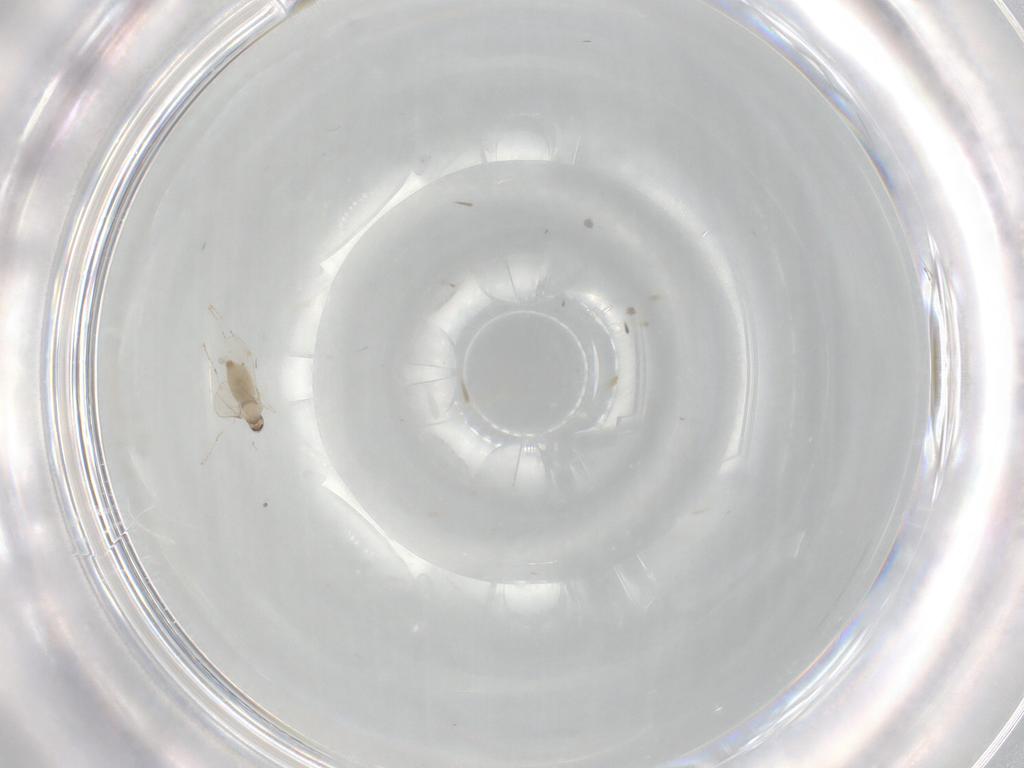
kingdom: Animalia
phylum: Arthropoda
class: Insecta
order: Diptera
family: Cecidomyiidae
